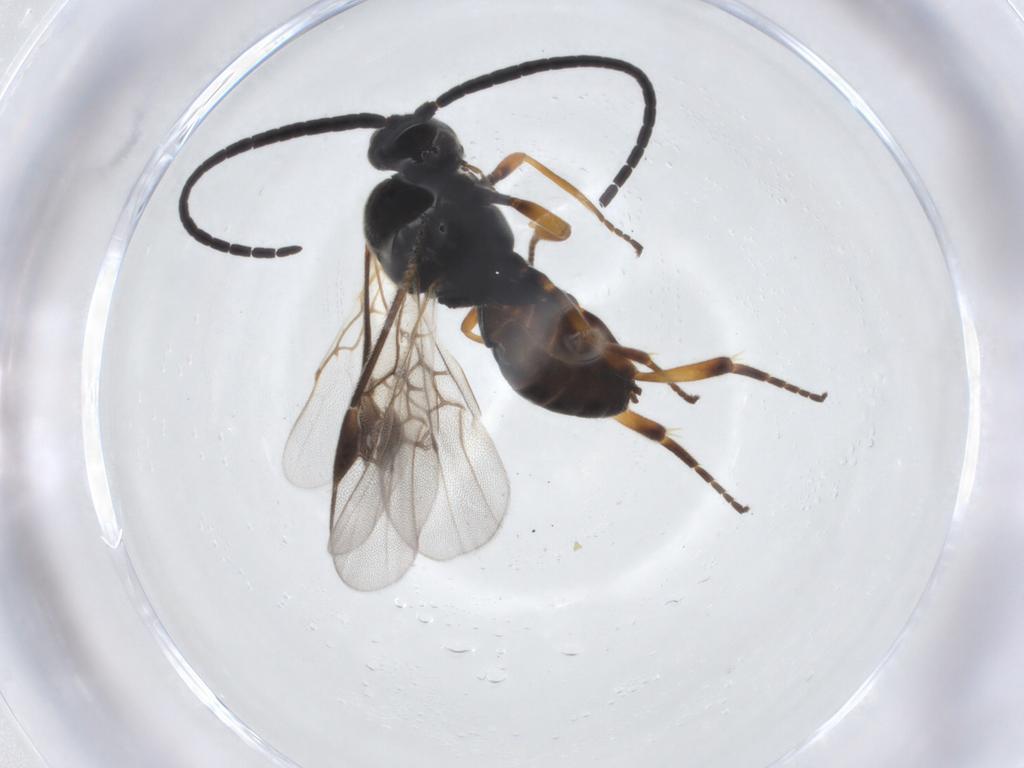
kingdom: Animalia
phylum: Arthropoda
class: Insecta
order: Hymenoptera
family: Braconidae
